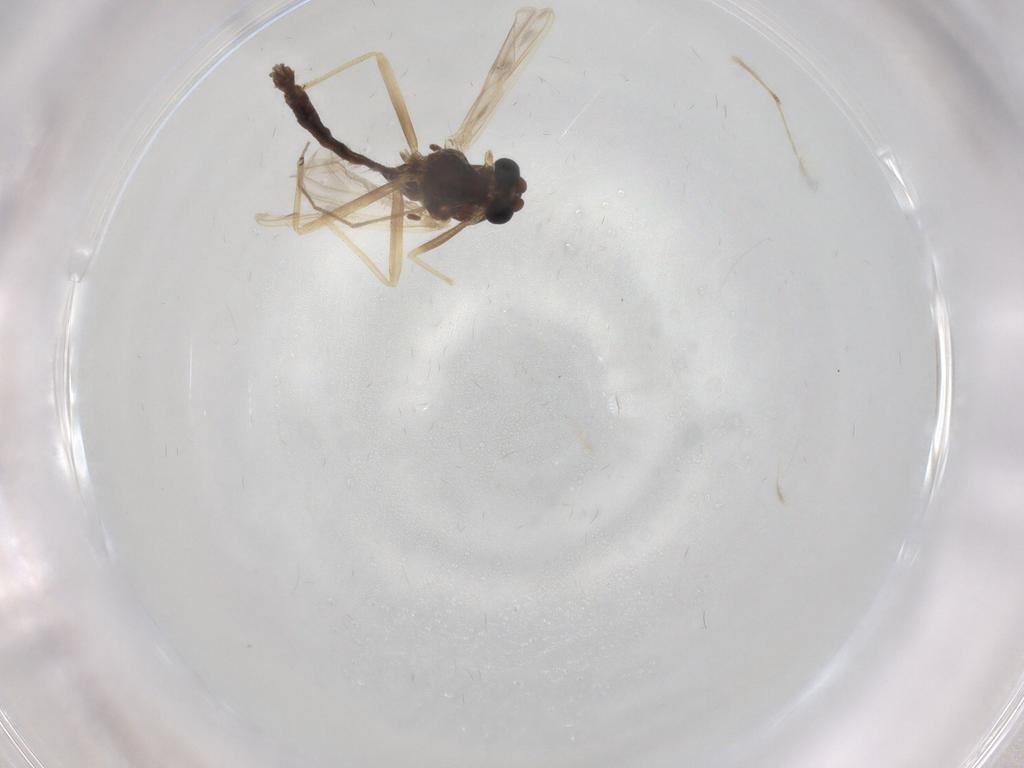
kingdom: Animalia
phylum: Arthropoda
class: Insecta
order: Diptera
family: Chironomidae
